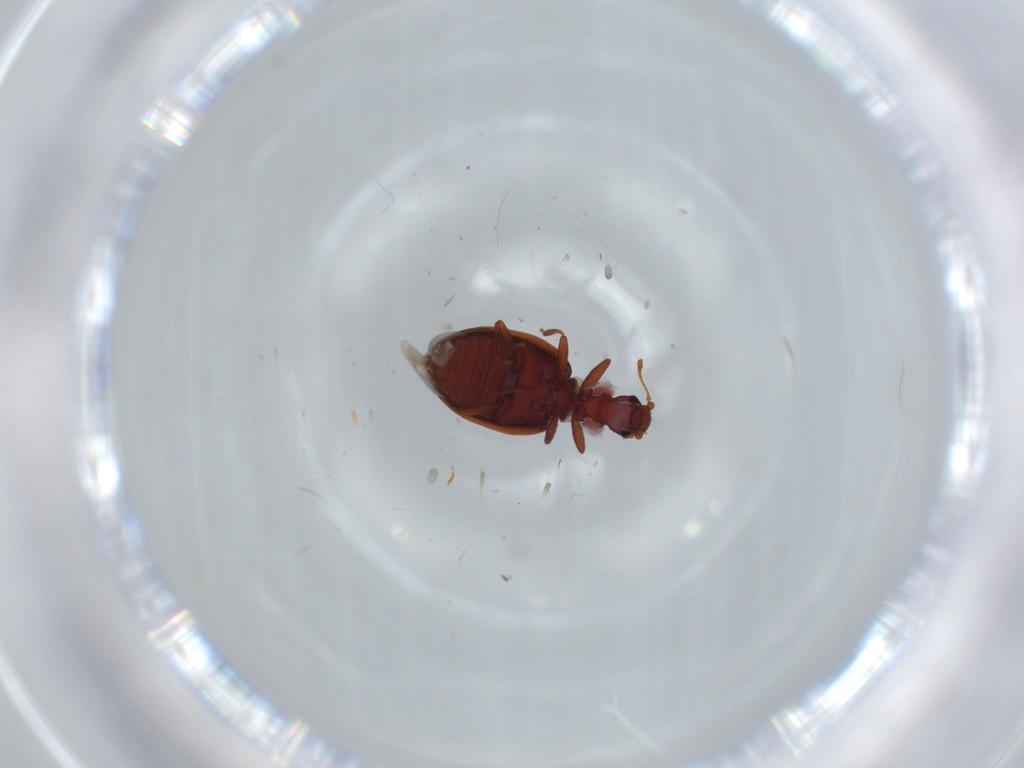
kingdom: Animalia
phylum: Arthropoda
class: Insecta
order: Coleoptera
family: Latridiidae
